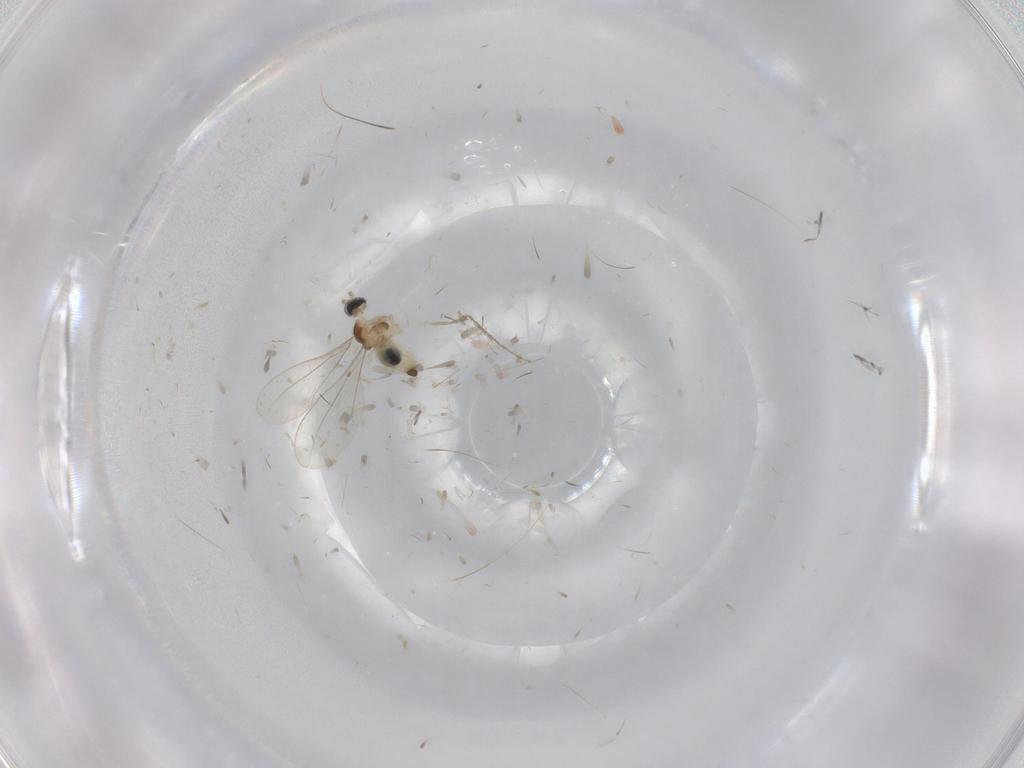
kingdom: Animalia
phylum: Arthropoda
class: Insecta
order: Diptera
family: Cecidomyiidae
